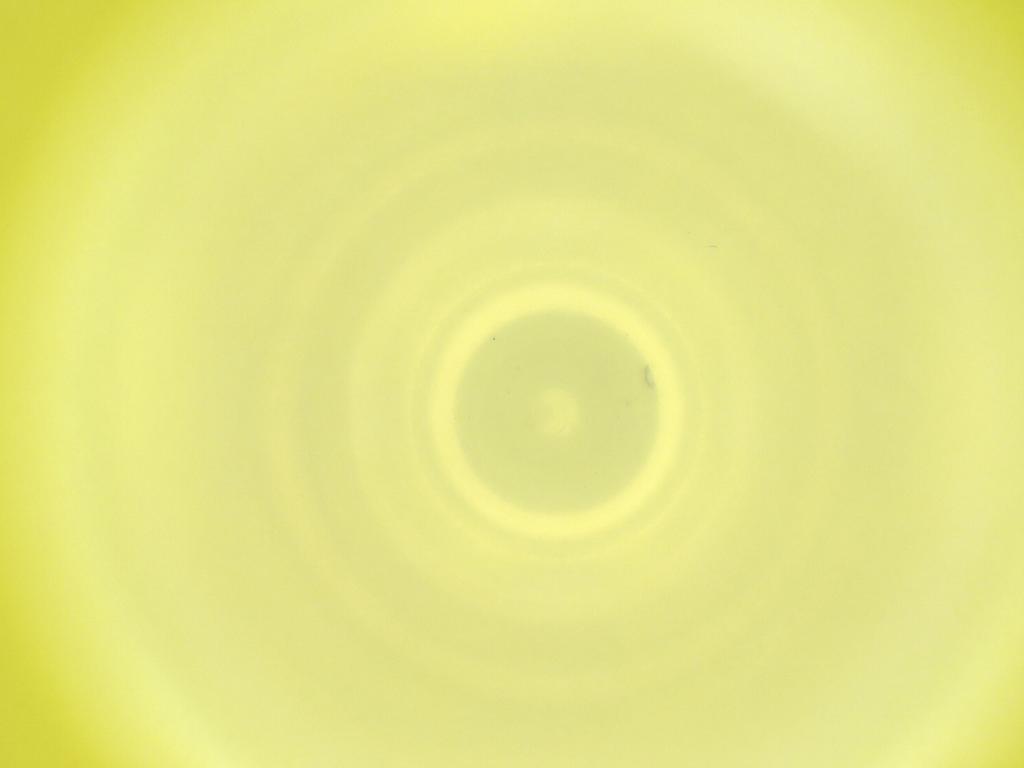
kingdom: Animalia
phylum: Arthropoda
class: Insecta
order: Diptera
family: Cecidomyiidae
